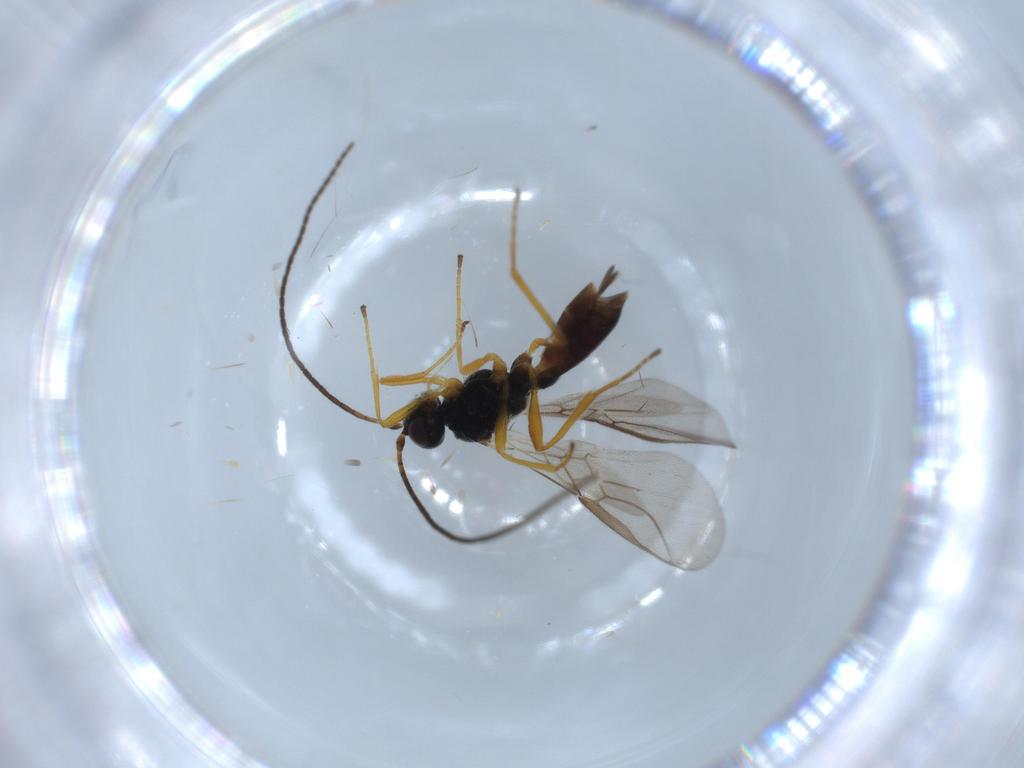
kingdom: Animalia
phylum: Arthropoda
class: Insecta
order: Hymenoptera
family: Braconidae
